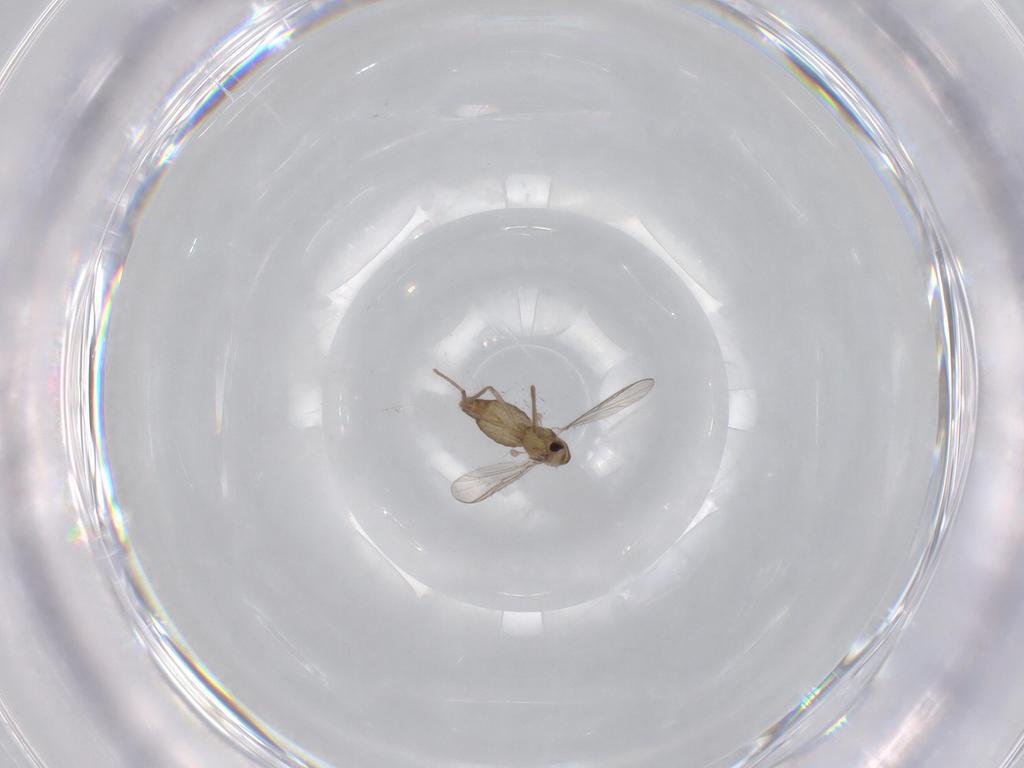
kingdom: Animalia
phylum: Arthropoda
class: Insecta
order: Diptera
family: Chironomidae
